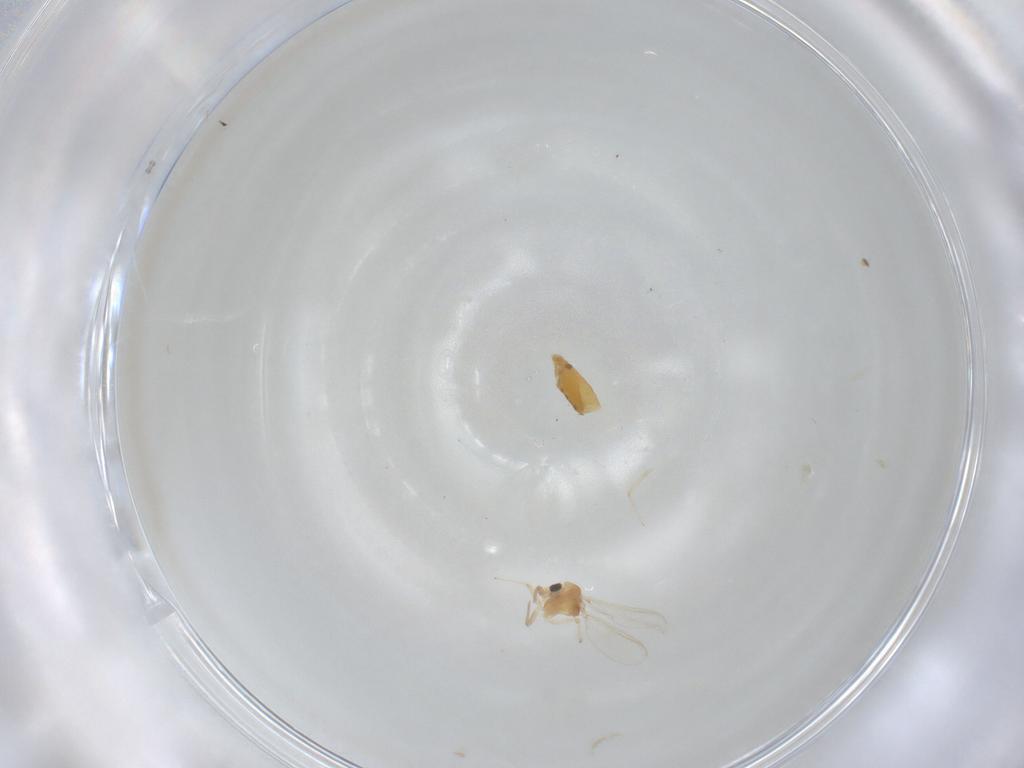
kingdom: Animalia
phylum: Arthropoda
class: Insecta
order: Diptera
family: Chironomidae
